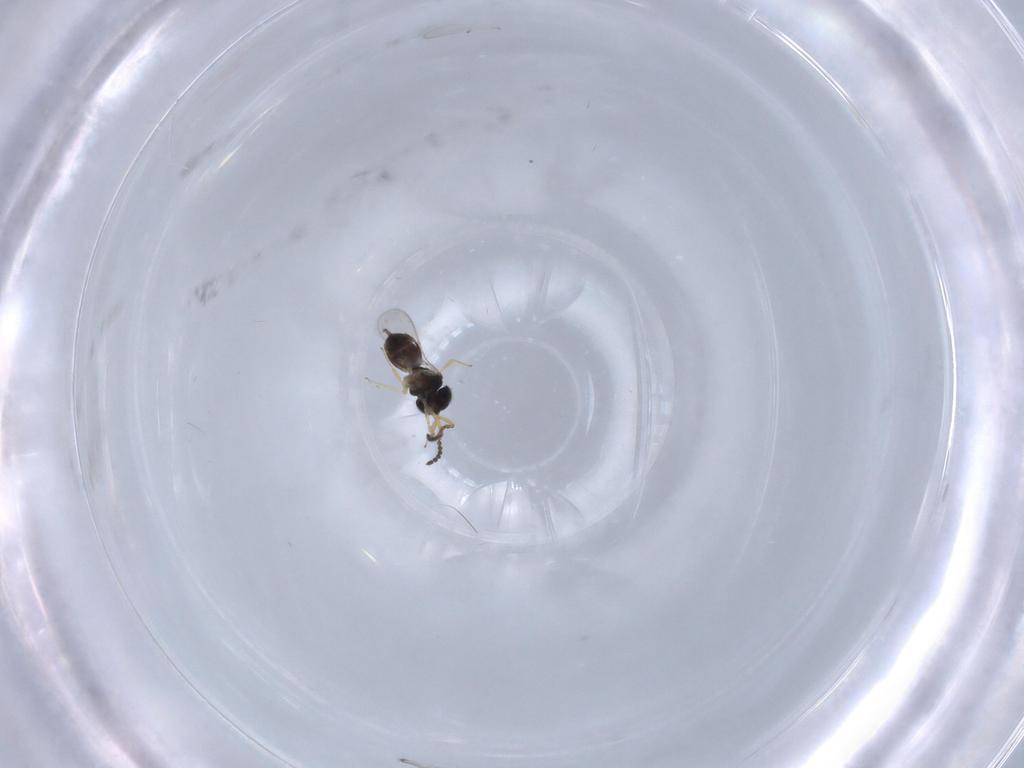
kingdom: Animalia
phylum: Arthropoda
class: Insecta
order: Hymenoptera
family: Scelionidae
